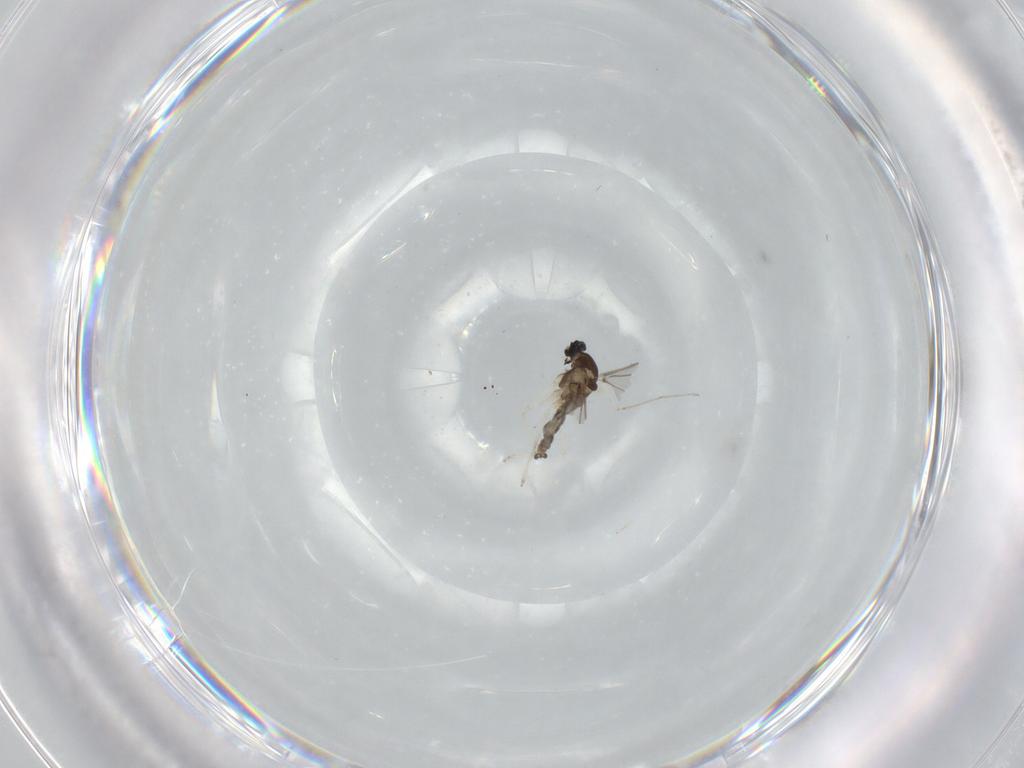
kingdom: Animalia
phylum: Arthropoda
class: Insecta
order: Diptera
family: Cecidomyiidae
